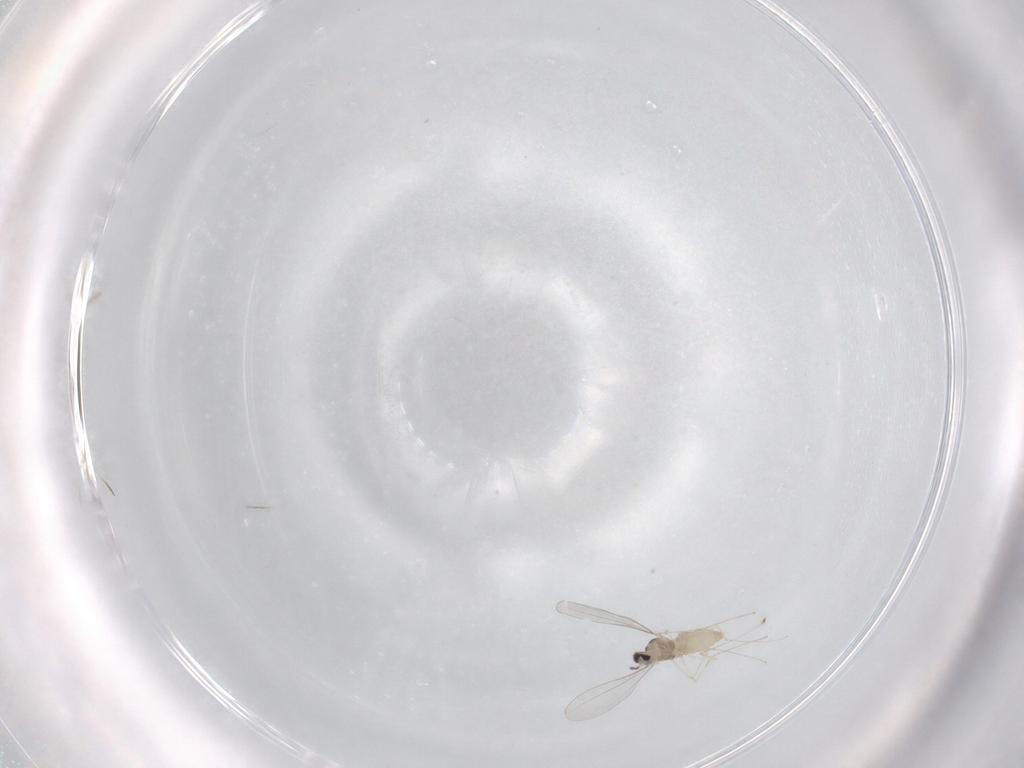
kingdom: Animalia
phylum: Arthropoda
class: Insecta
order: Diptera
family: Cecidomyiidae
